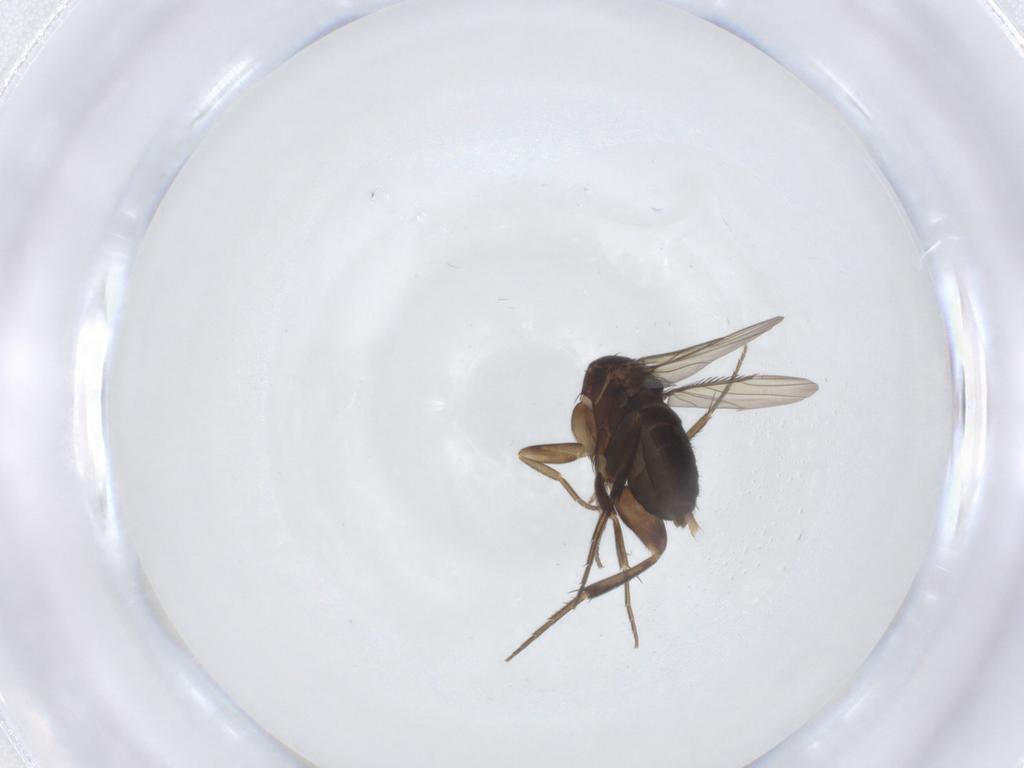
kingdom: Animalia
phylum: Arthropoda
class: Insecta
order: Diptera
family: Phoridae
